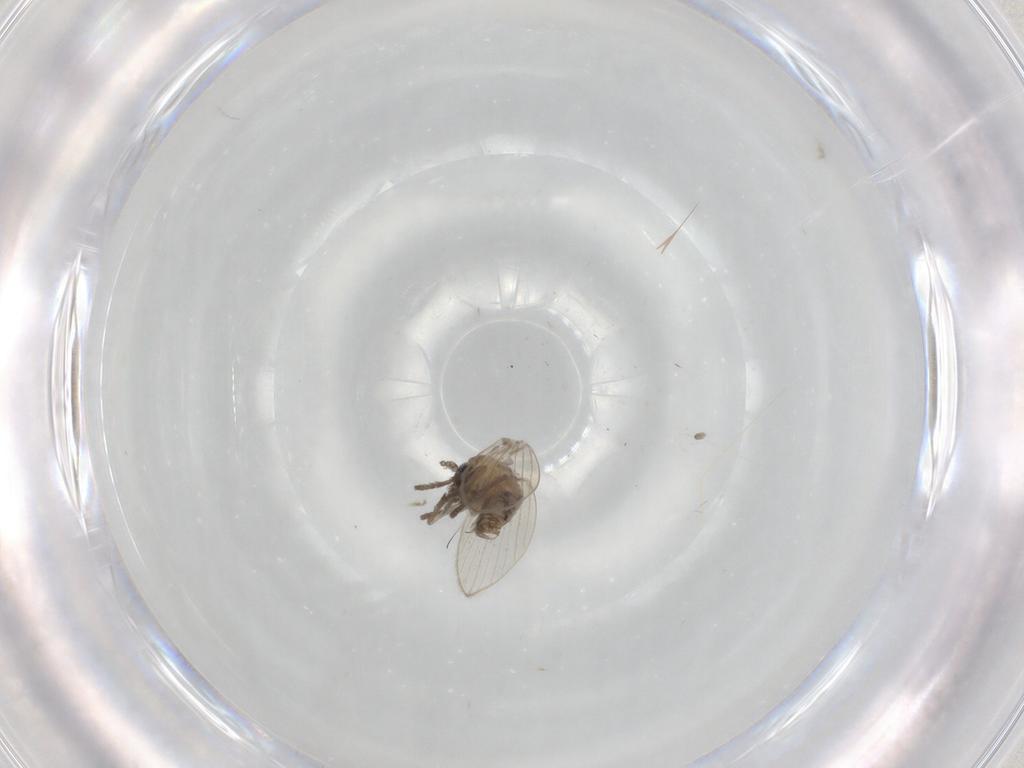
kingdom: Animalia
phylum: Arthropoda
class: Insecta
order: Diptera
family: Psychodidae
